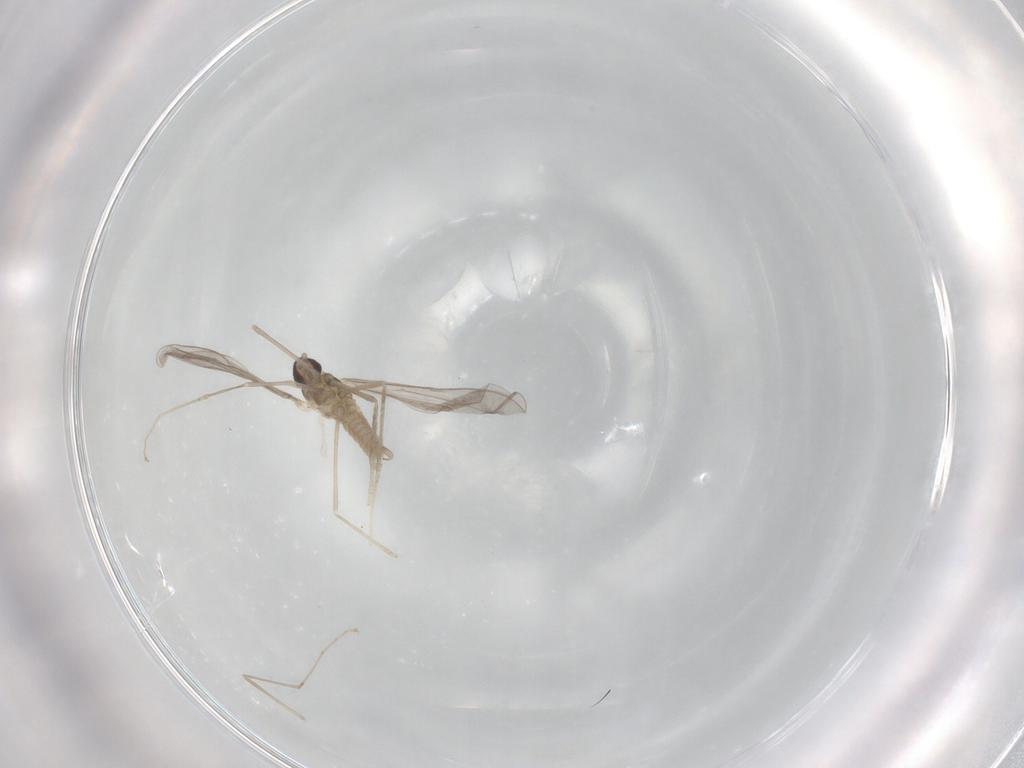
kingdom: Animalia
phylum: Arthropoda
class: Insecta
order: Diptera
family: Cecidomyiidae
